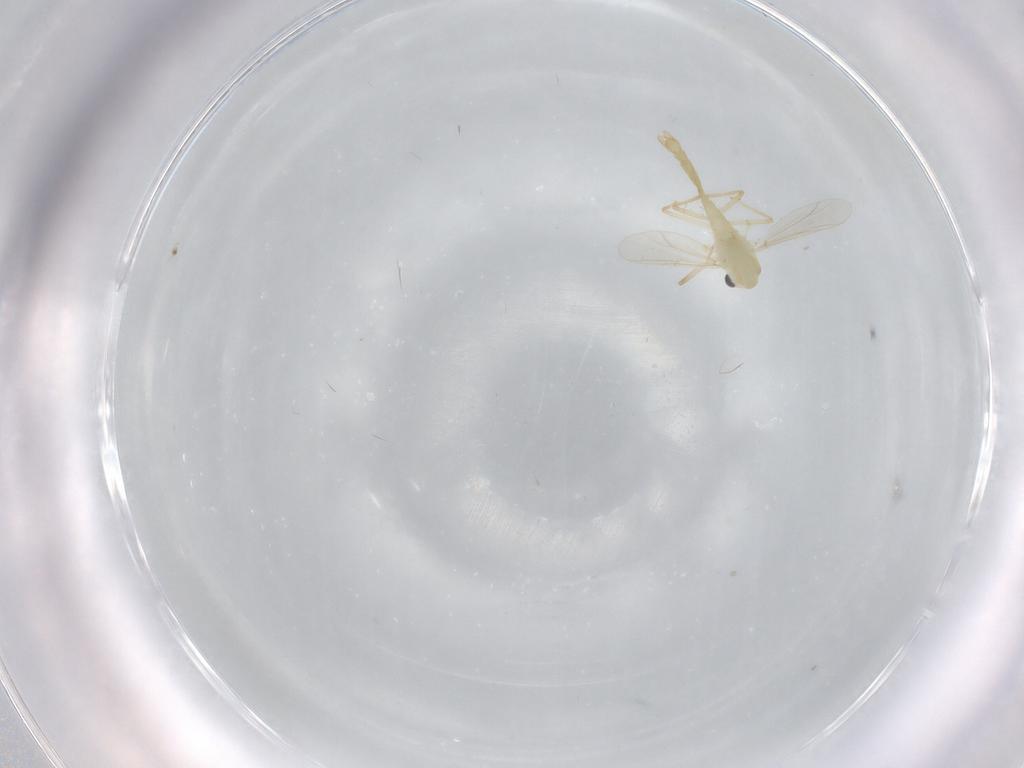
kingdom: Animalia
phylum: Arthropoda
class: Insecta
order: Diptera
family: Chironomidae
